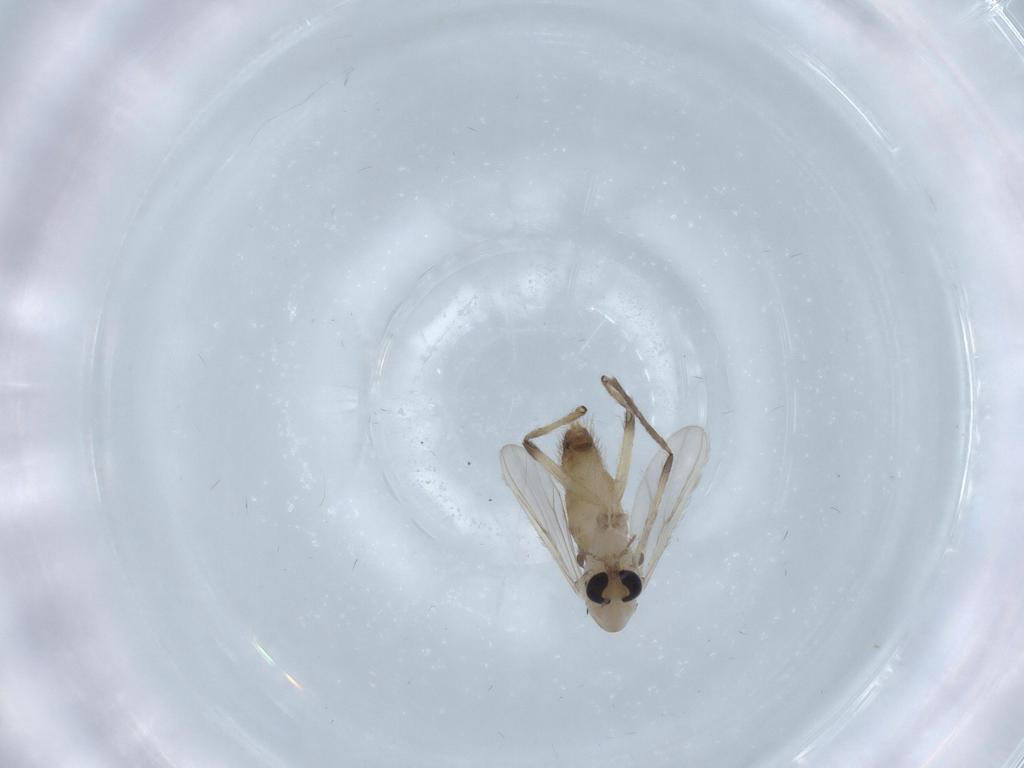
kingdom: Animalia
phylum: Arthropoda
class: Insecta
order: Diptera
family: Chironomidae
